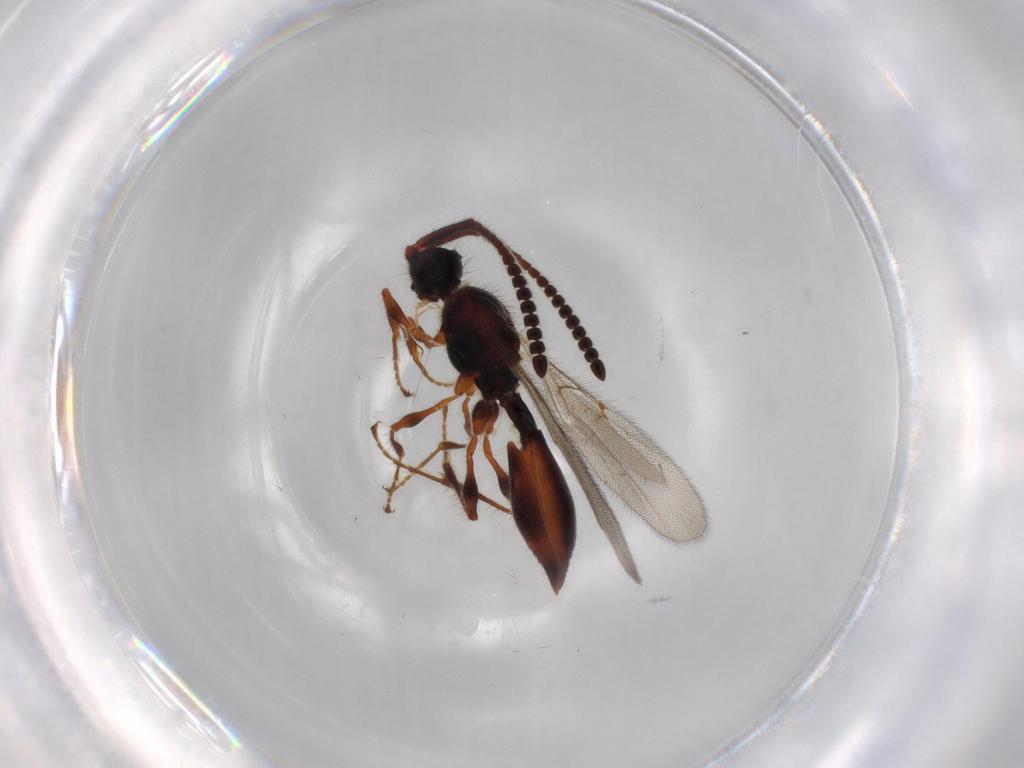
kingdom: Animalia
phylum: Arthropoda
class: Insecta
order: Hymenoptera
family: Diapriidae
